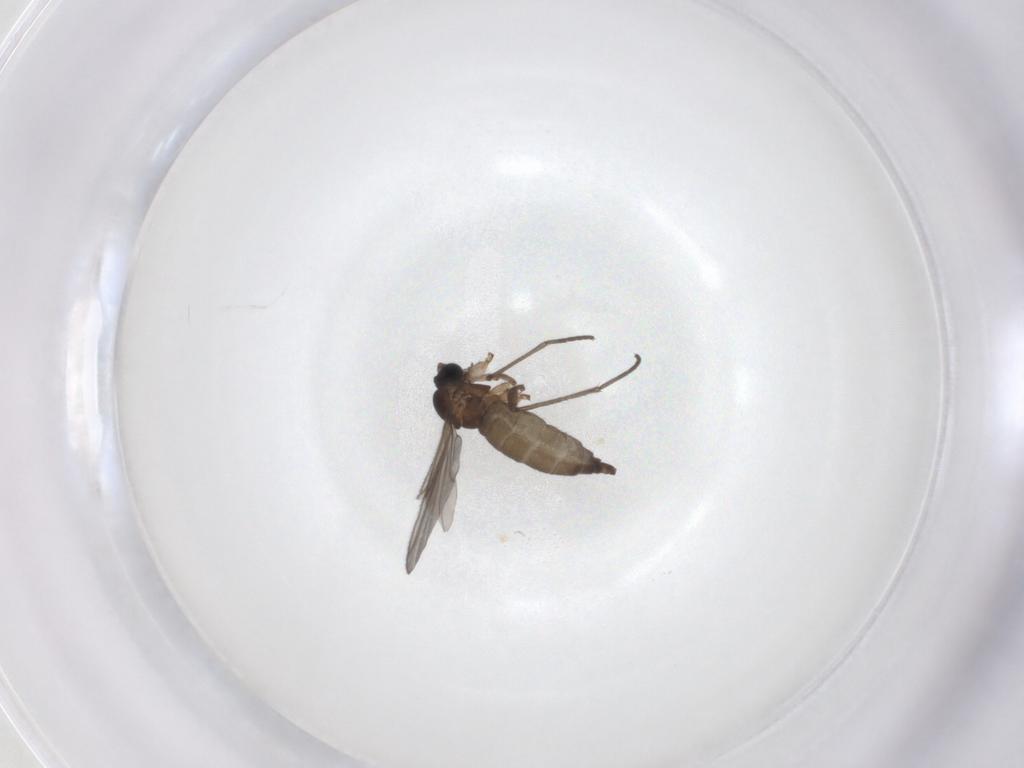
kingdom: Animalia
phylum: Arthropoda
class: Insecta
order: Diptera
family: Sciaridae
